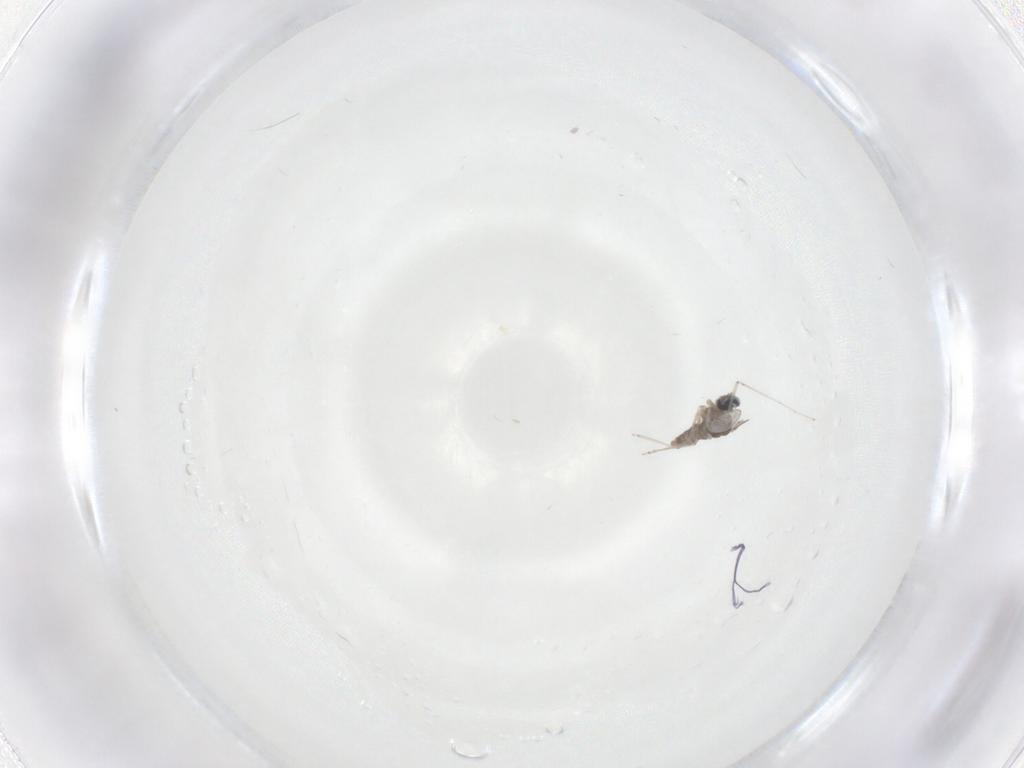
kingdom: Animalia
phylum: Arthropoda
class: Insecta
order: Diptera
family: Cecidomyiidae
